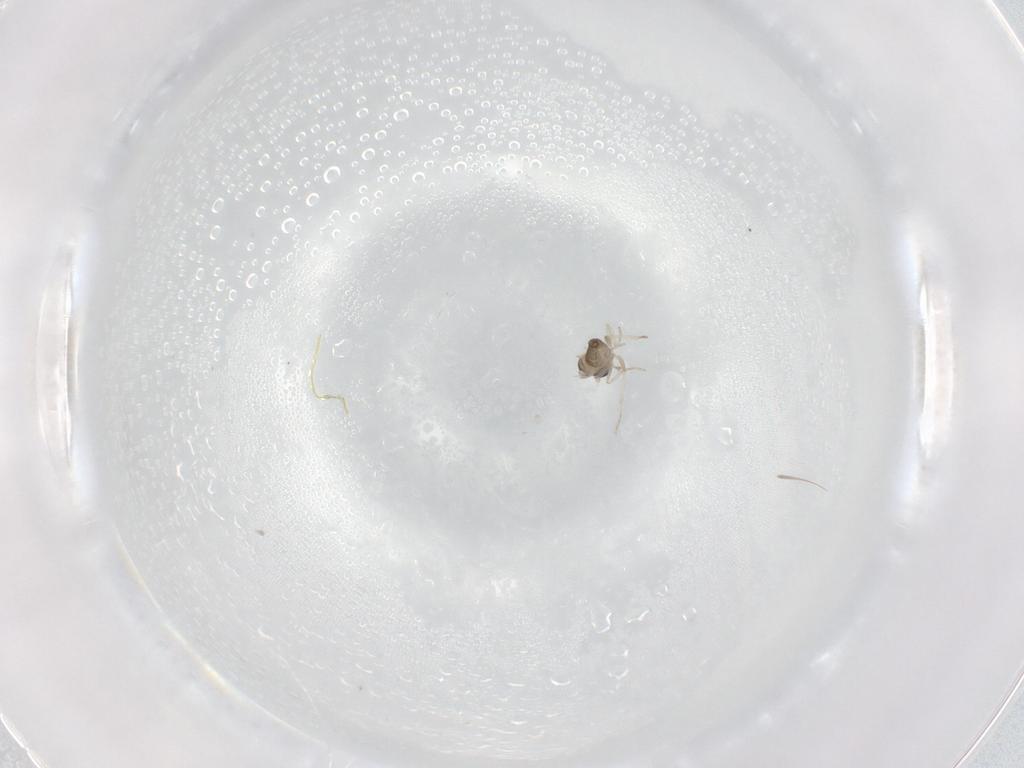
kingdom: Animalia
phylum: Arthropoda
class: Insecta
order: Diptera
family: Cecidomyiidae
